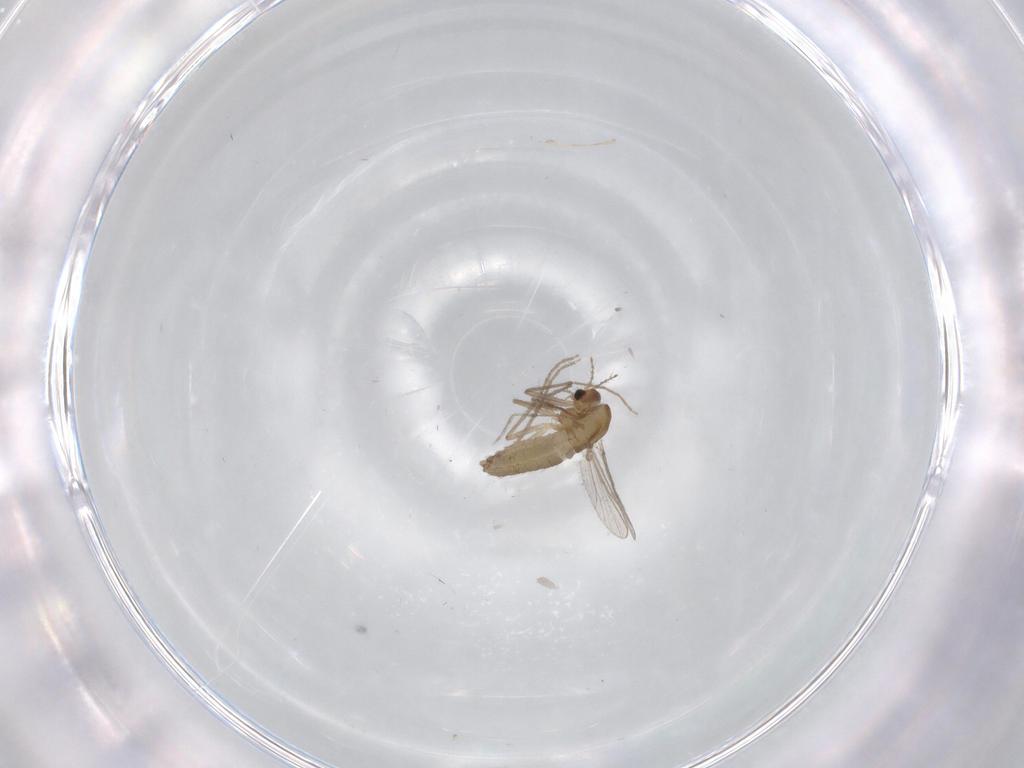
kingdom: Animalia
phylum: Arthropoda
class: Insecta
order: Diptera
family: Chironomidae
